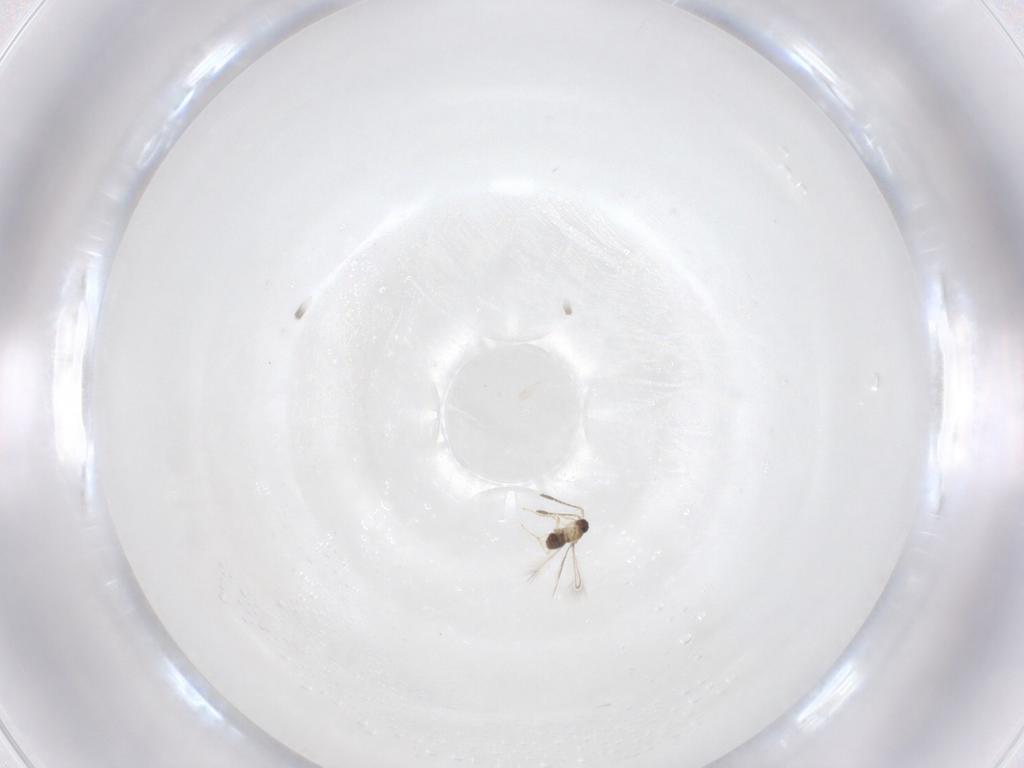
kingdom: Animalia
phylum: Arthropoda
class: Insecta
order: Hymenoptera
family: Mymaridae
